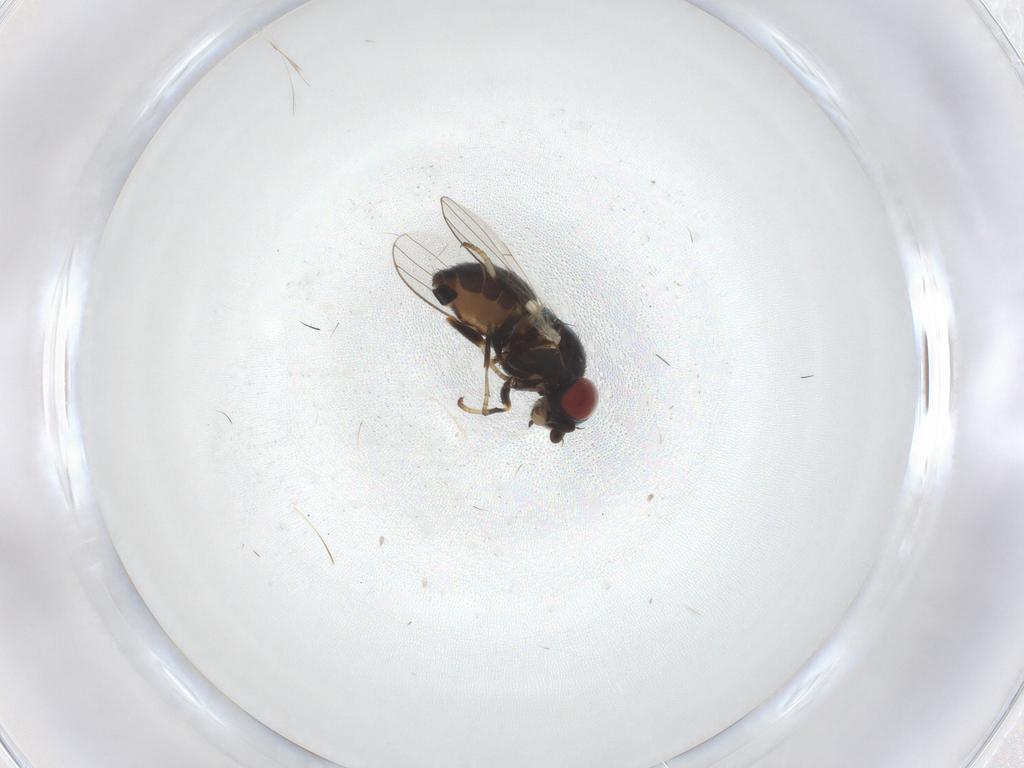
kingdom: Animalia
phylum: Arthropoda
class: Insecta
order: Diptera
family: Chamaemyiidae
